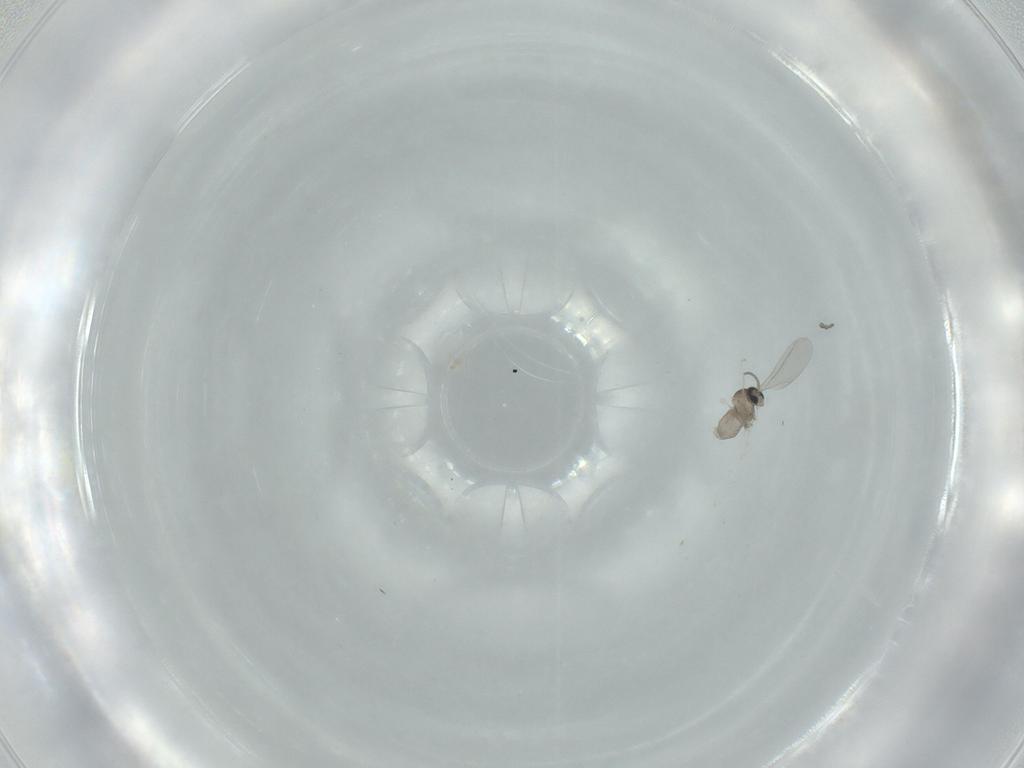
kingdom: Animalia
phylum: Arthropoda
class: Insecta
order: Diptera
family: Cecidomyiidae
